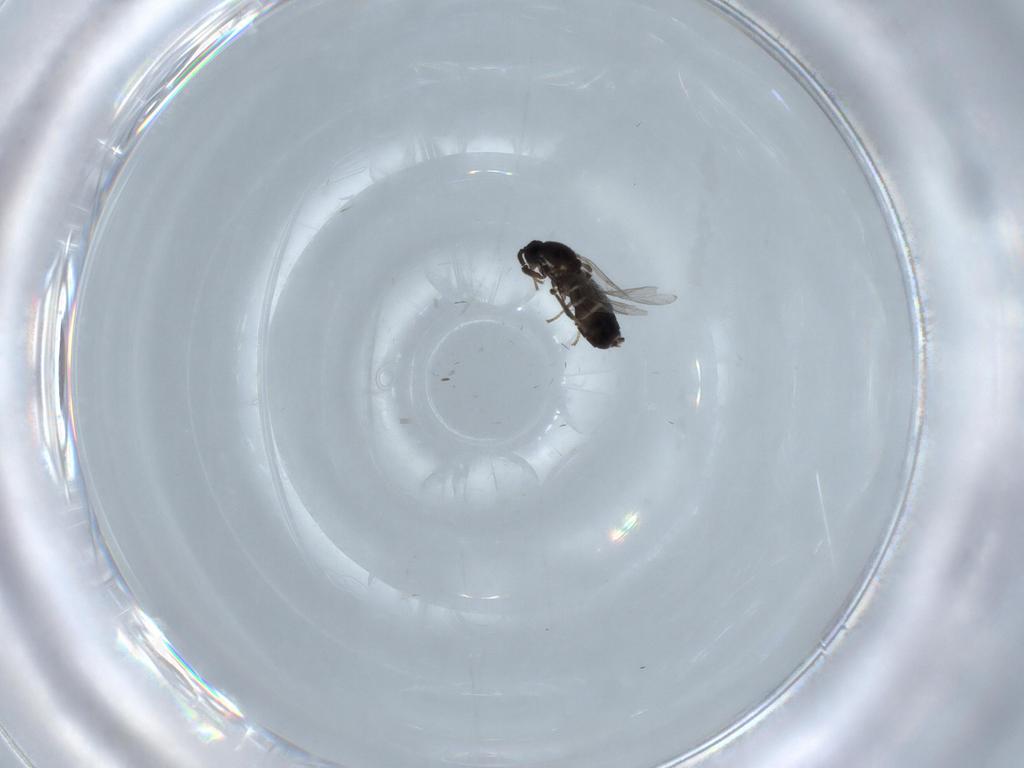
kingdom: Animalia
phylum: Arthropoda
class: Insecta
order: Diptera
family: Scatopsidae
